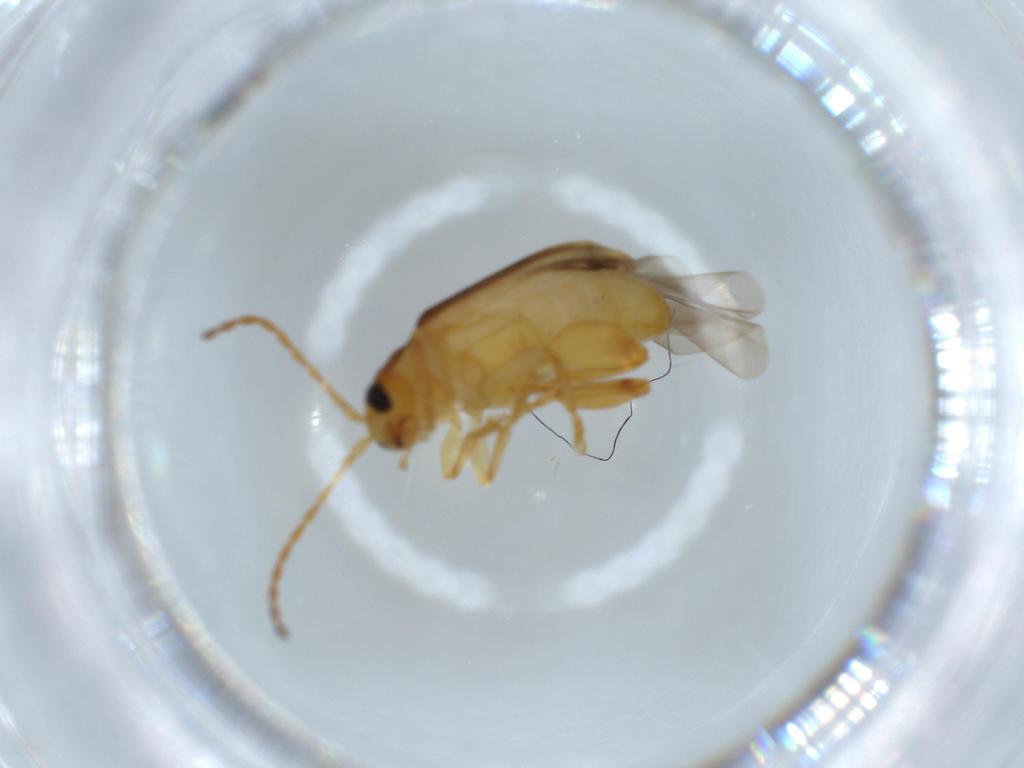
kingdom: Animalia
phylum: Arthropoda
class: Insecta
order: Coleoptera
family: Chrysomelidae
